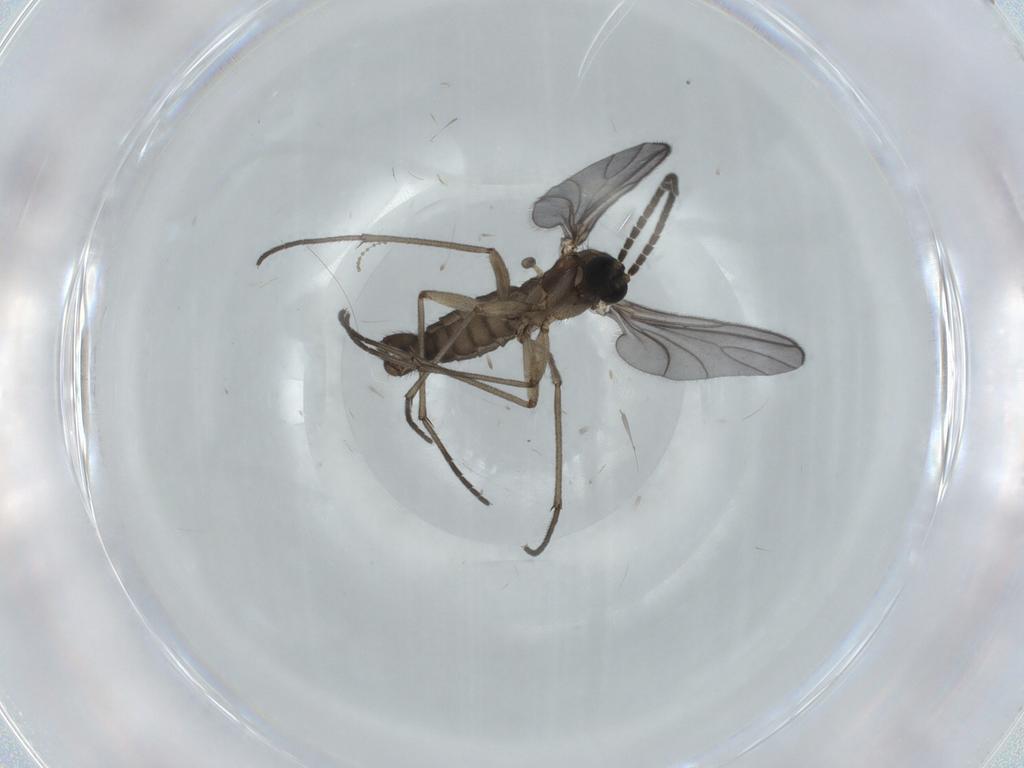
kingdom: Animalia
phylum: Arthropoda
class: Insecta
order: Diptera
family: Sciaridae
